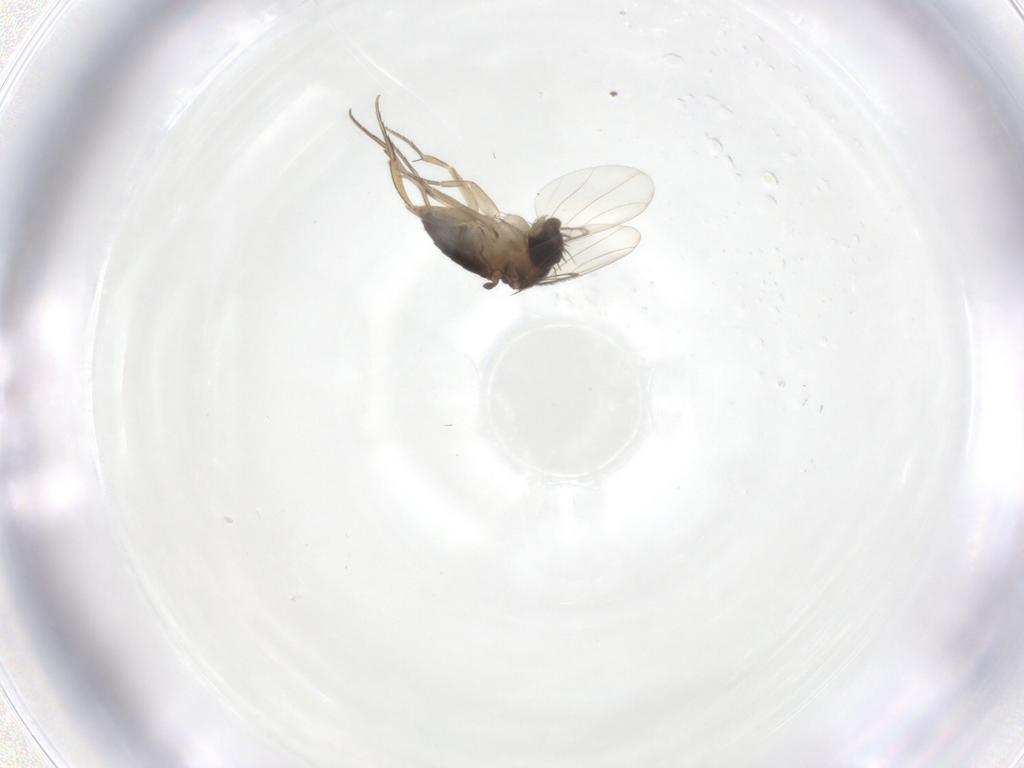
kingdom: Animalia
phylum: Arthropoda
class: Insecta
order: Diptera
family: Phoridae
